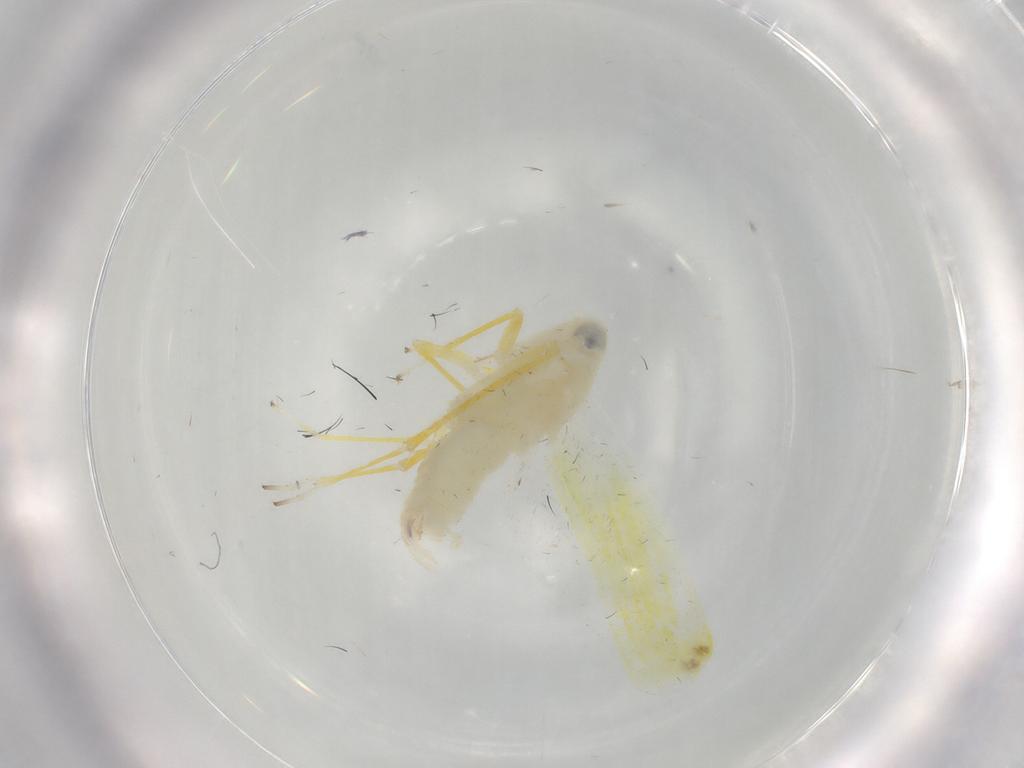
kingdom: Animalia
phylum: Arthropoda
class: Insecta
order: Hemiptera
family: Cicadellidae
